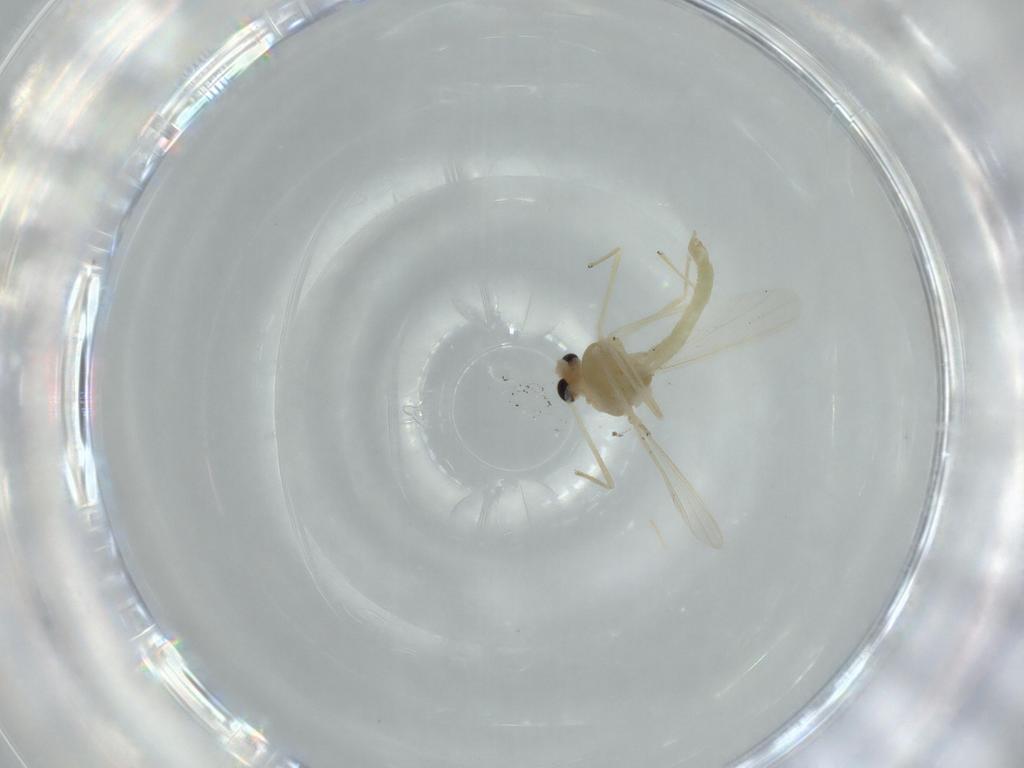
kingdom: Animalia
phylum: Arthropoda
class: Insecta
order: Diptera
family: Chironomidae
